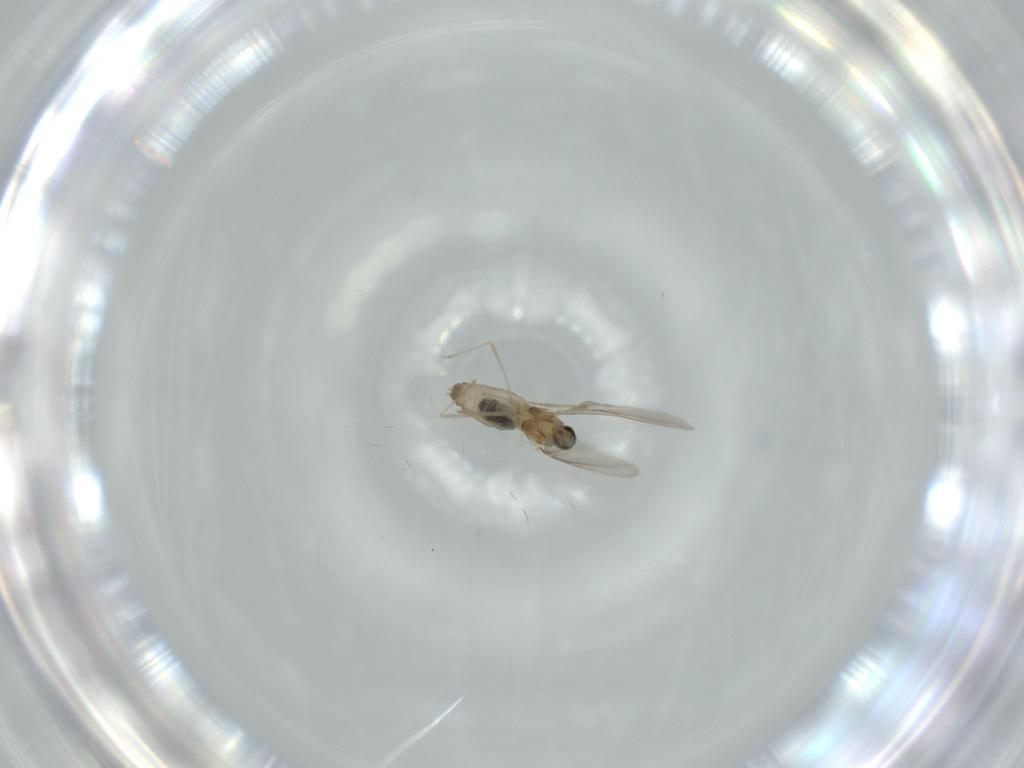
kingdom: Animalia
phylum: Arthropoda
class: Insecta
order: Diptera
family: Cecidomyiidae
